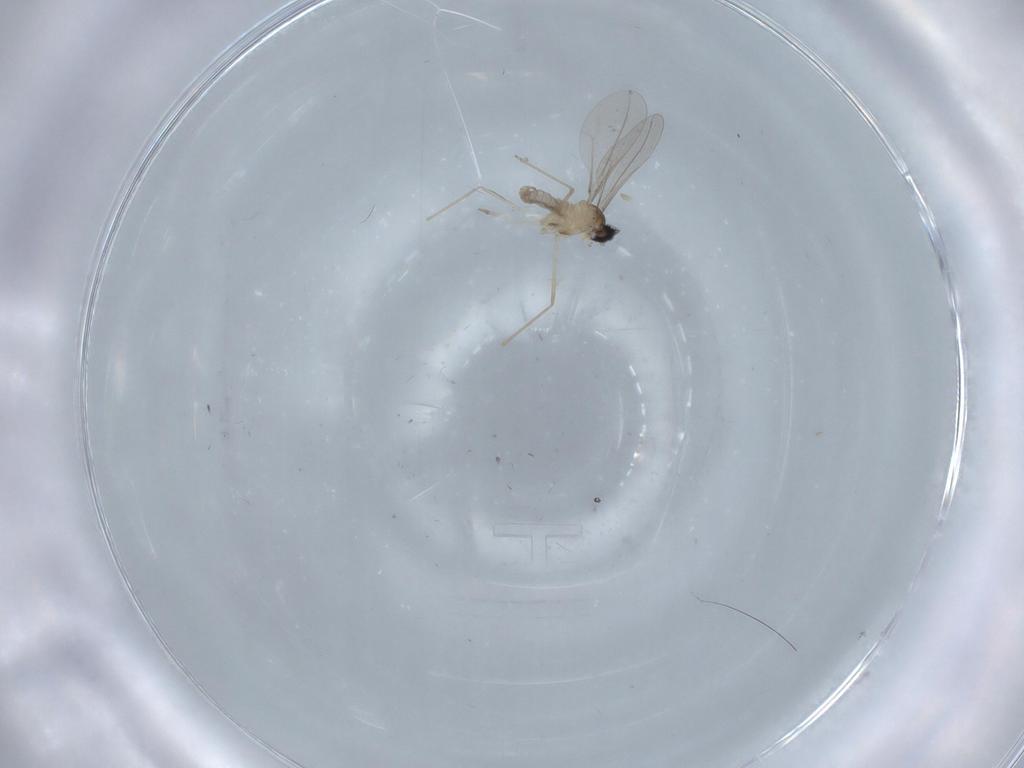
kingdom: Animalia
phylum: Arthropoda
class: Insecta
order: Diptera
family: Cecidomyiidae
